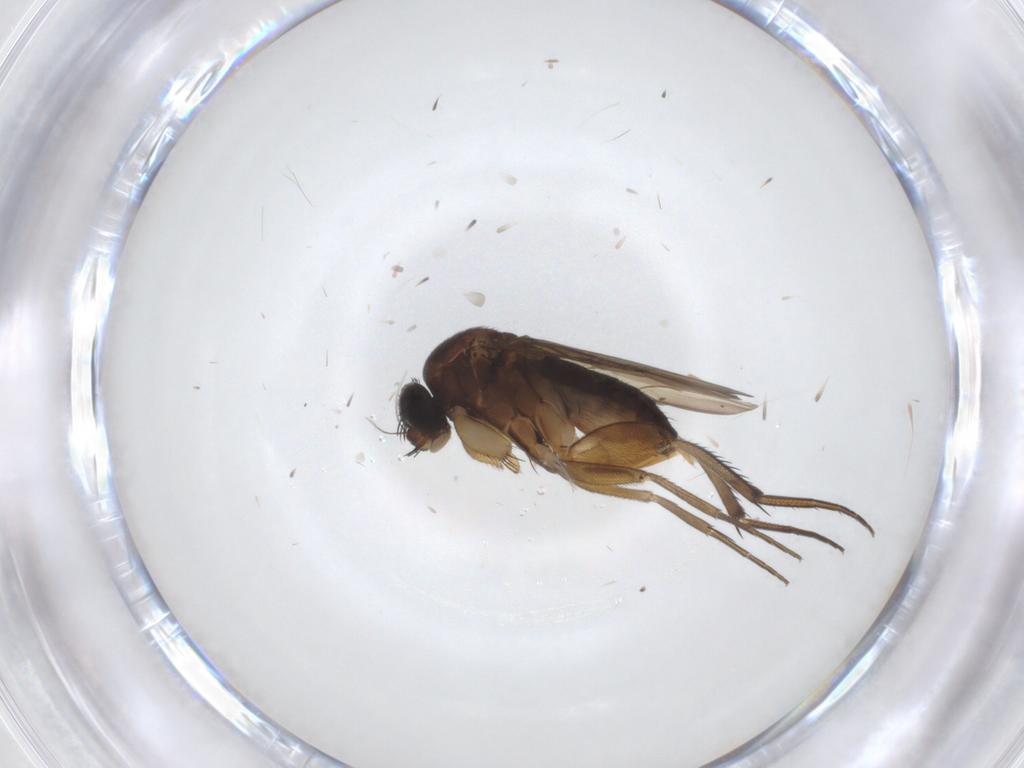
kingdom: Animalia
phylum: Arthropoda
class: Insecta
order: Diptera
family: Phoridae
